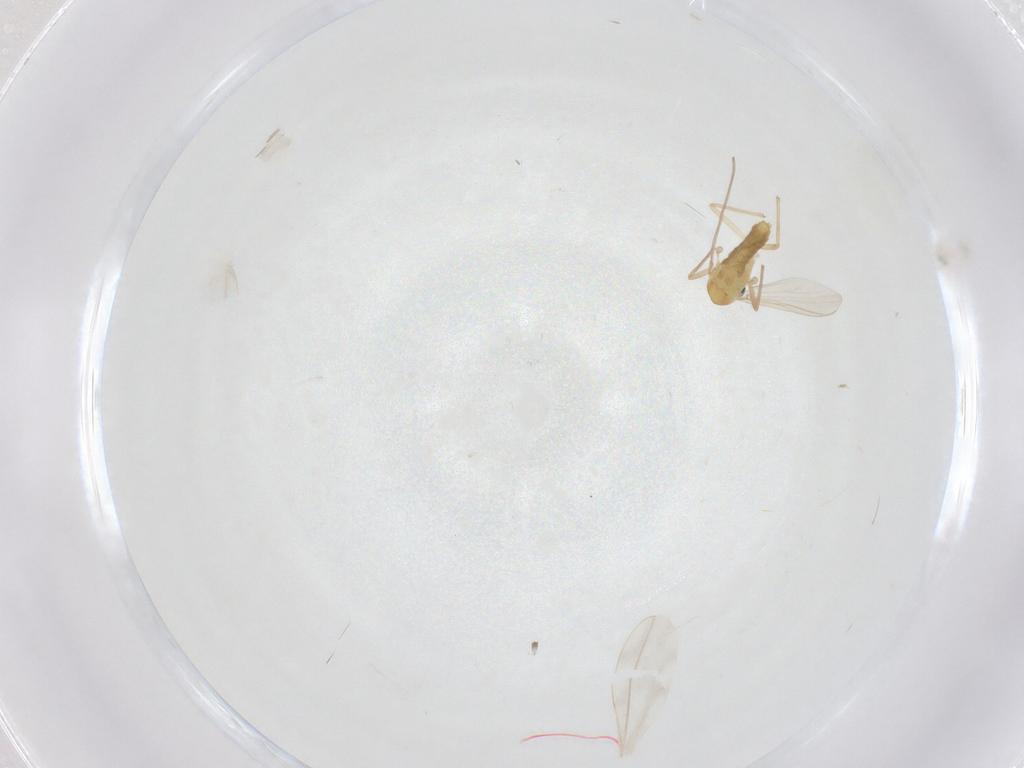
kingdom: Animalia
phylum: Arthropoda
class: Insecta
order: Diptera
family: Chironomidae
